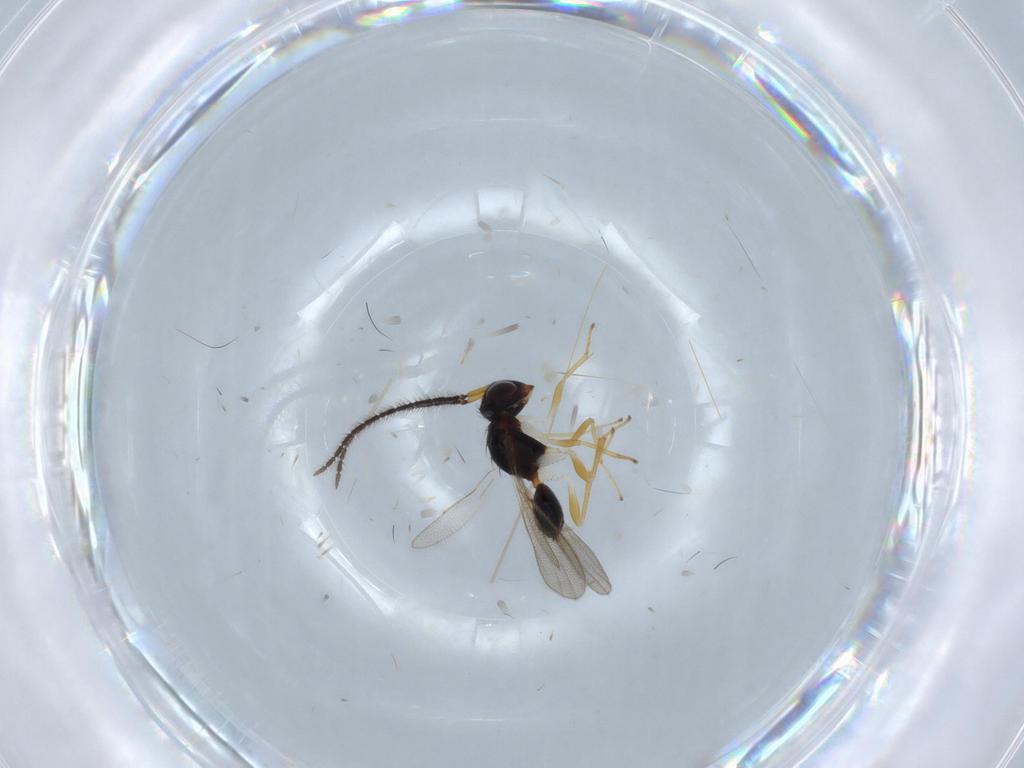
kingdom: Animalia
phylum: Arthropoda
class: Insecta
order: Hymenoptera
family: Diparidae
